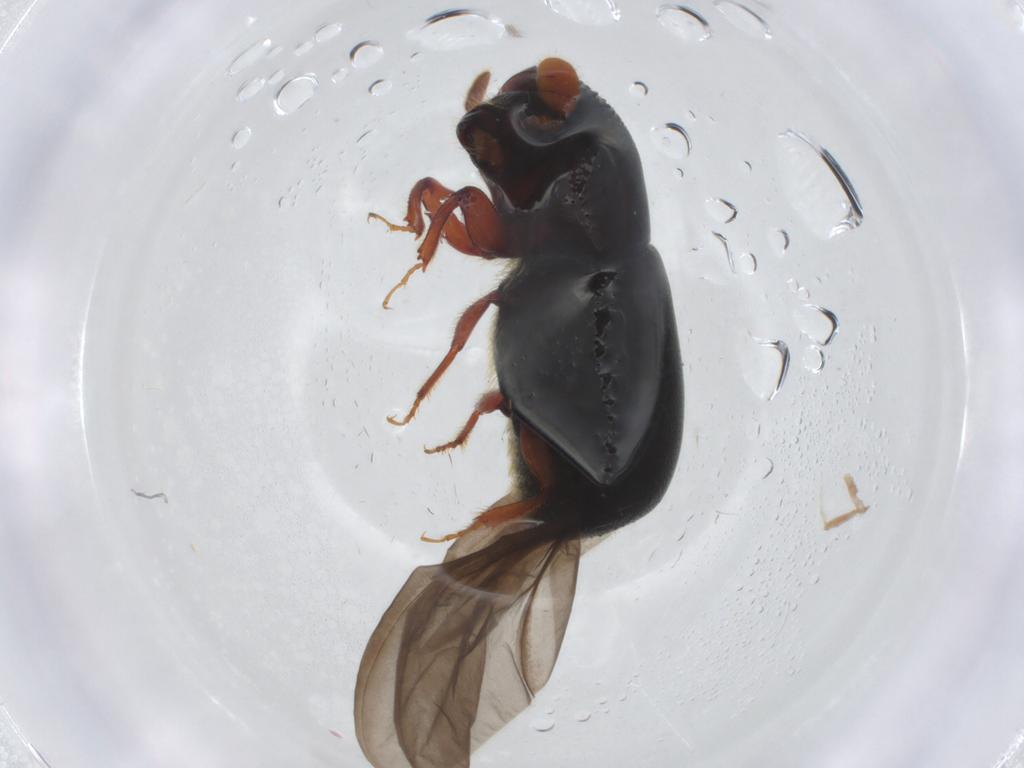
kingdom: Animalia
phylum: Arthropoda
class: Insecta
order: Coleoptera
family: Curculionidae
